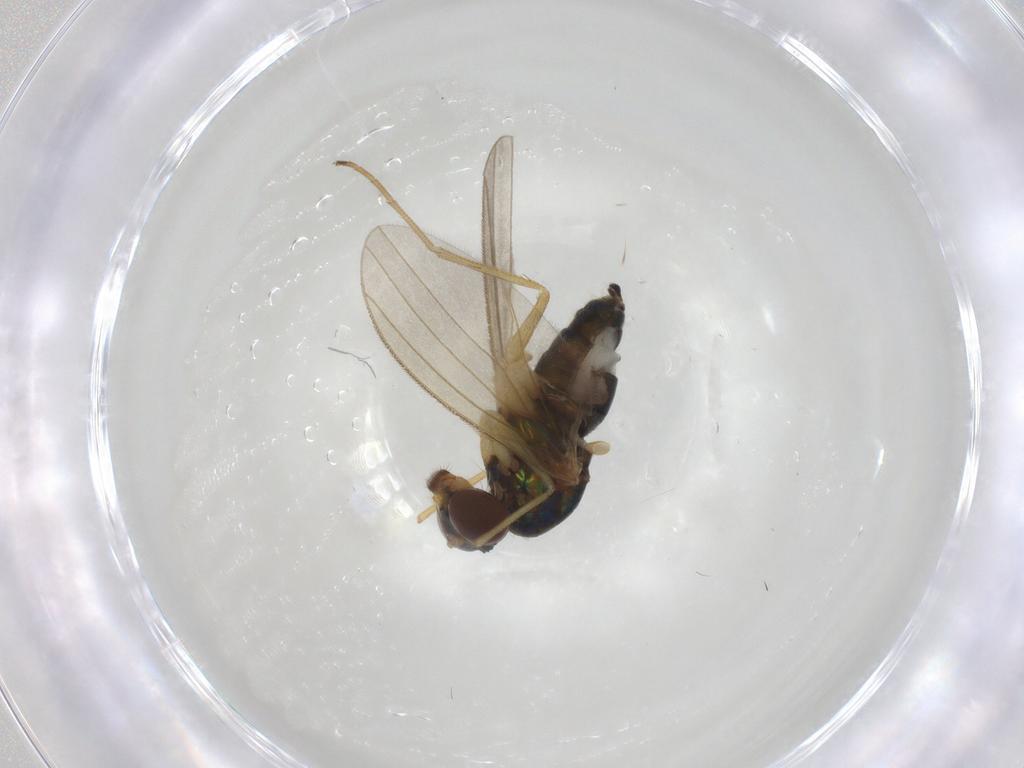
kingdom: Animalia
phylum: Arthropoda
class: Insecta
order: Diptera
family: Dolichopodidae
